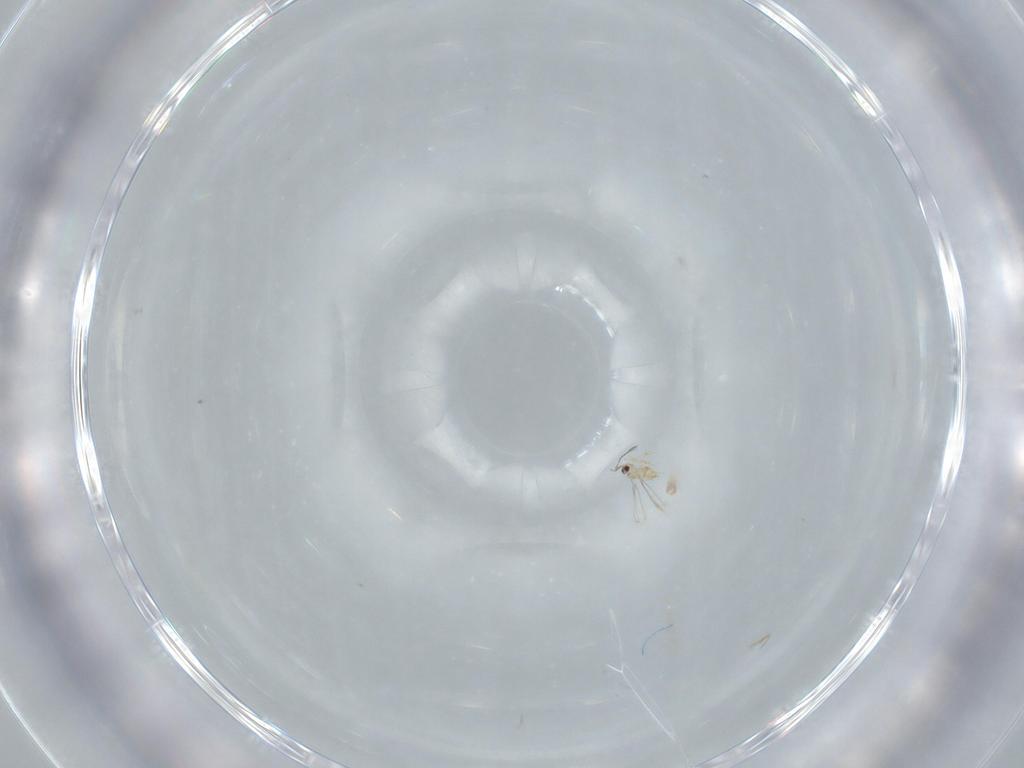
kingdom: Animalia
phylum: Arthropoda
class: Insecta
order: Hymenoptera
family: Mymaridae
